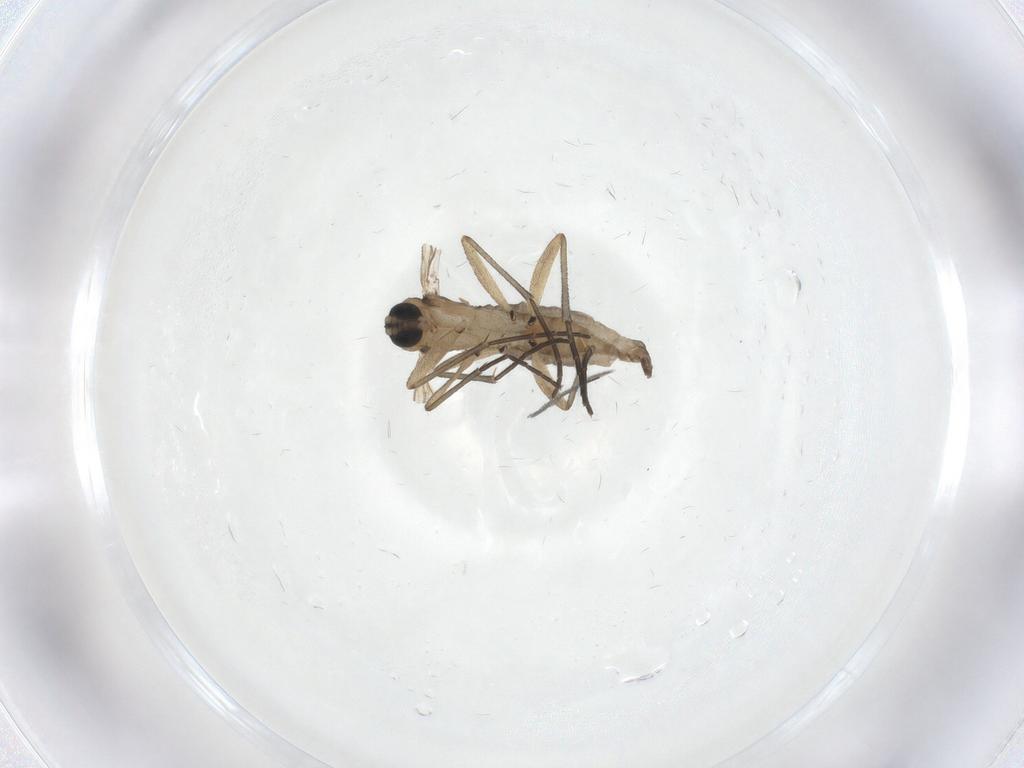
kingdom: Animalia
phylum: Arthropoda
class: Insecta
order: Diptera
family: Sciaridae
